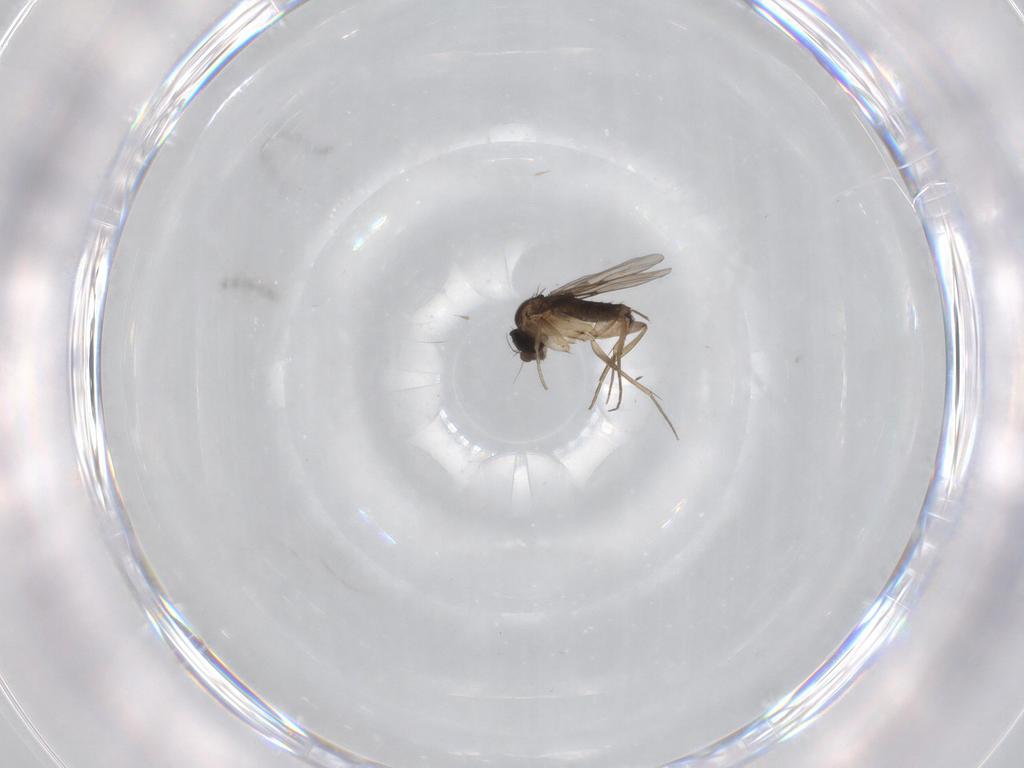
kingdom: Animalia
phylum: Arthropoda
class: Insecta
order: Diptera
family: Phoridae
